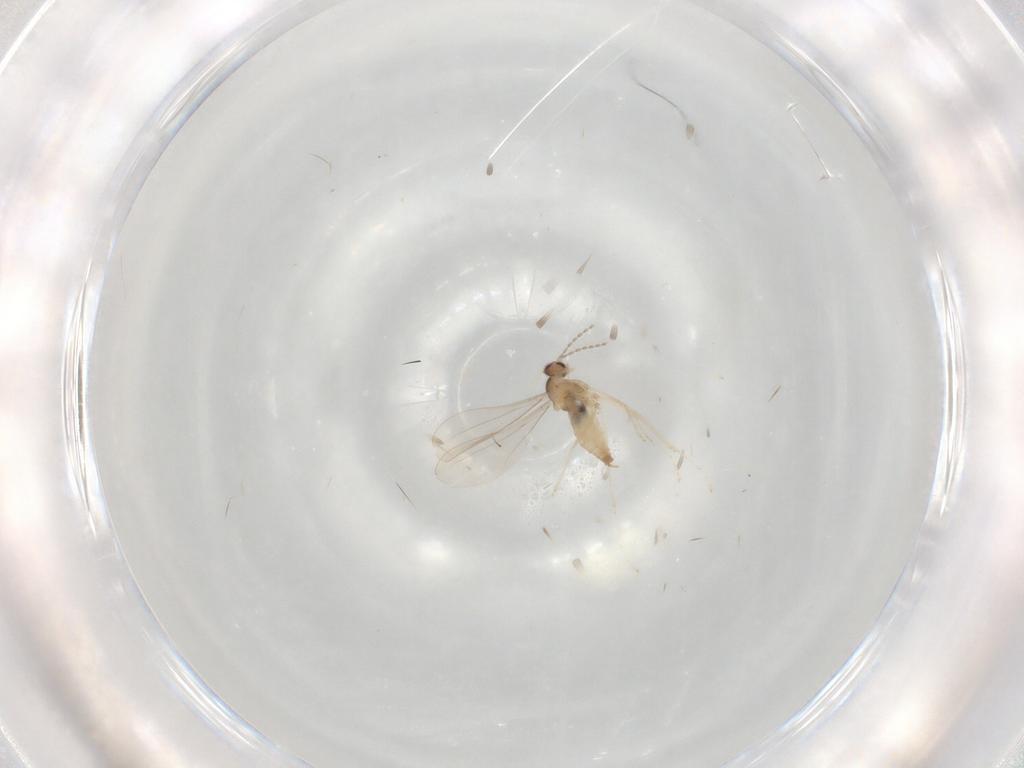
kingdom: Animalia
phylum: Arthropoda
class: Insecta
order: Diptera
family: Cecidomyiidae
